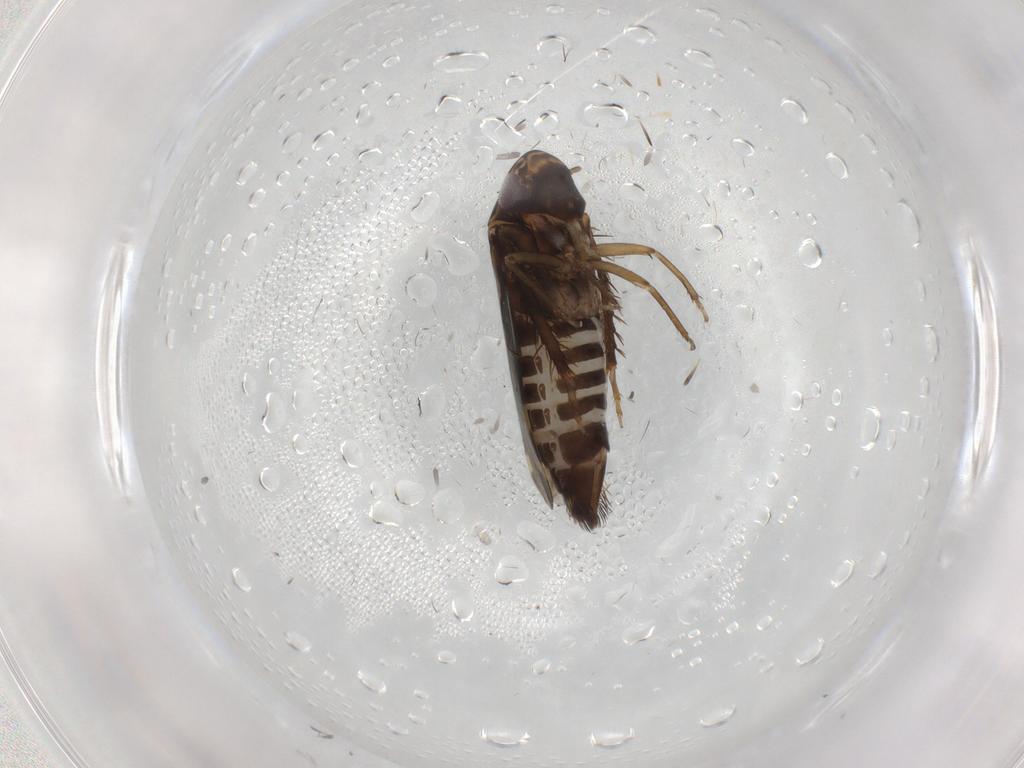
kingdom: Animalia
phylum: Arthropoda
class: Insecta
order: Hemiptera
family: Cicadellidae
